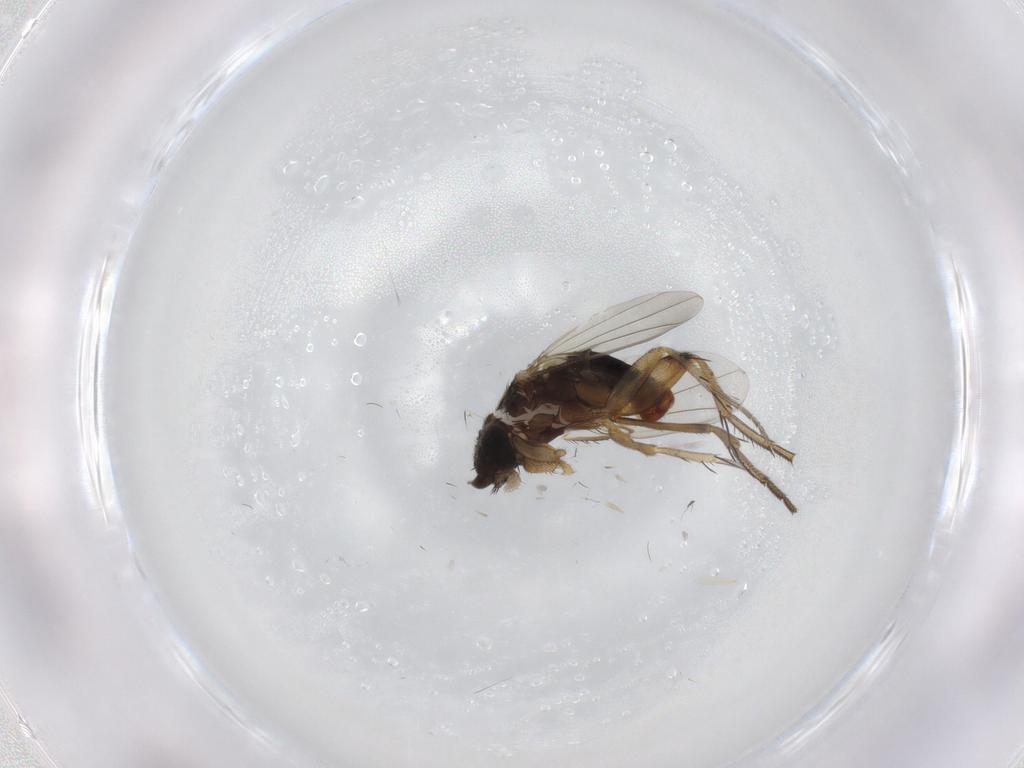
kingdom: Animalia
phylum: Arthropoda
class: Insecta
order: Diptera
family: Phoridae
